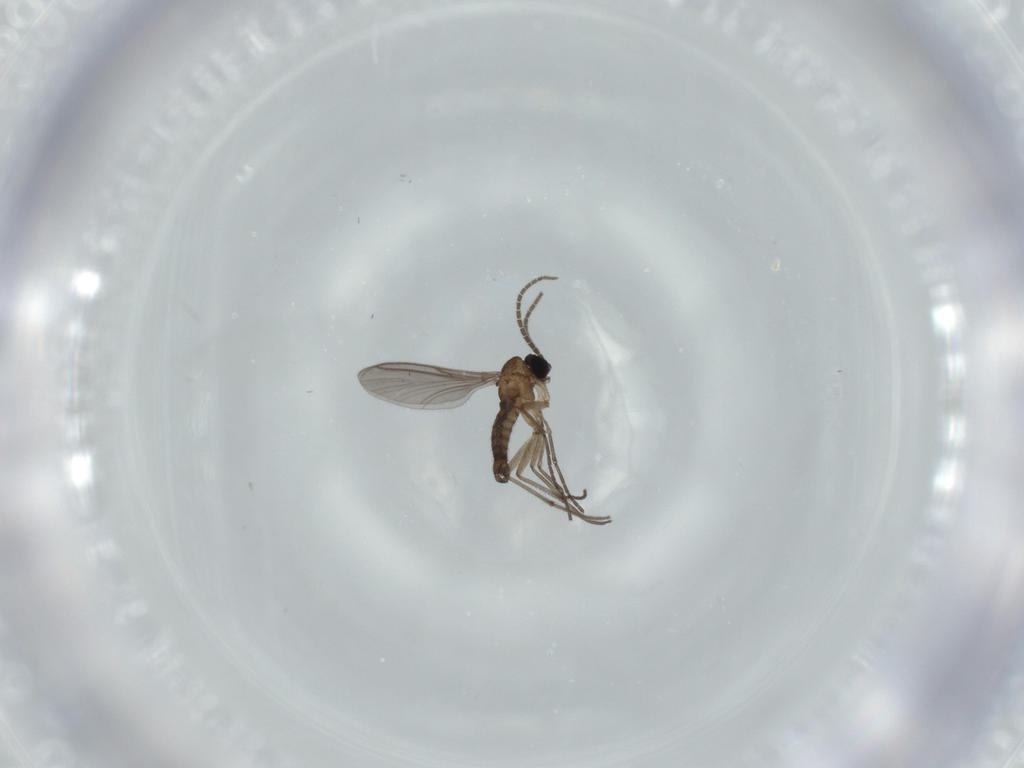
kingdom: Animalia
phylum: Arthropoda
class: Insecta
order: Diptera
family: Sciaridae
